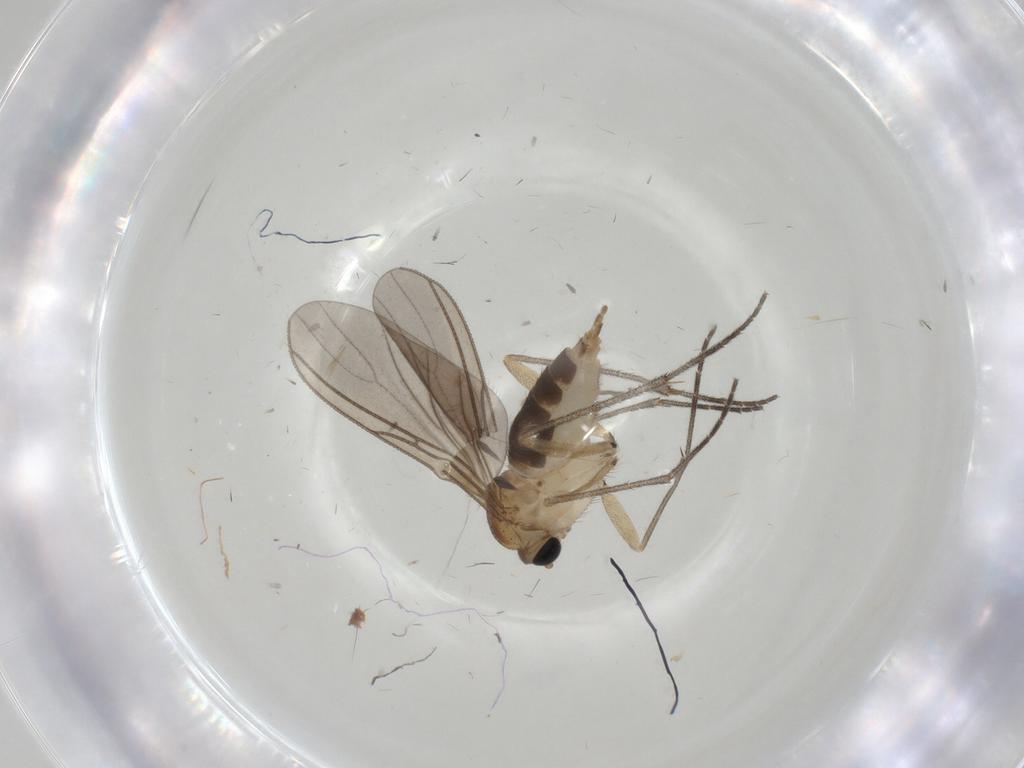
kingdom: Animalia
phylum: Arthropoda
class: Insecta
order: Diptera
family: Sciaridae
